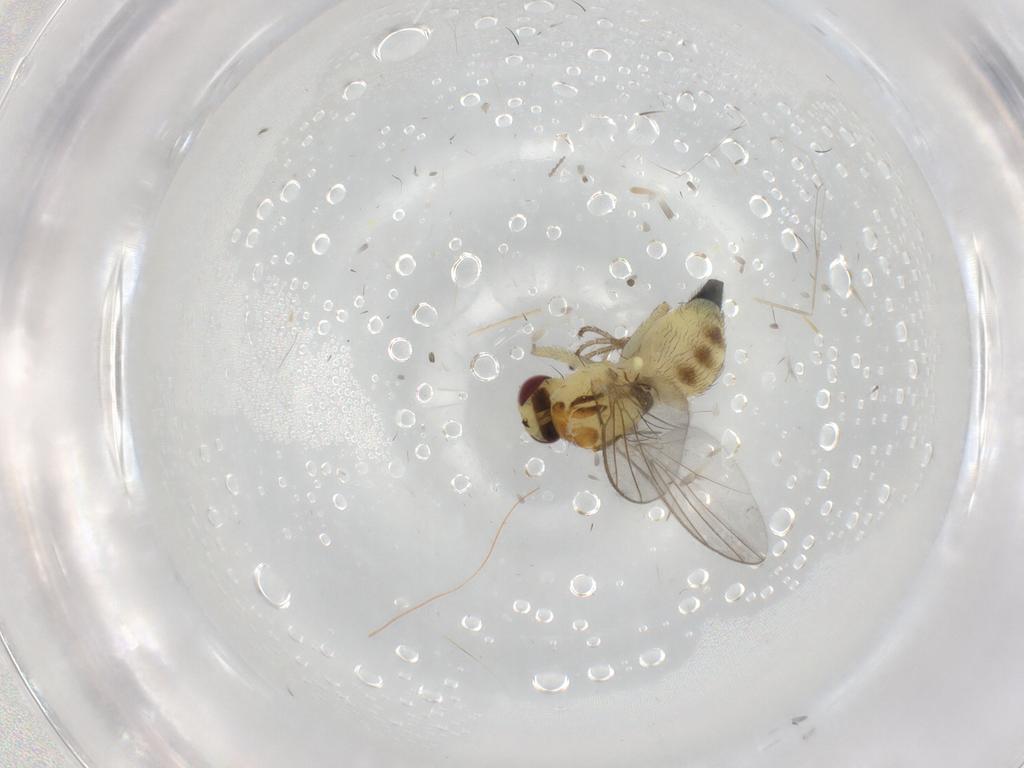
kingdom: Animalia
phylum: Arthropoda
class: Insecta
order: Diptera
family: Agromyzidae
